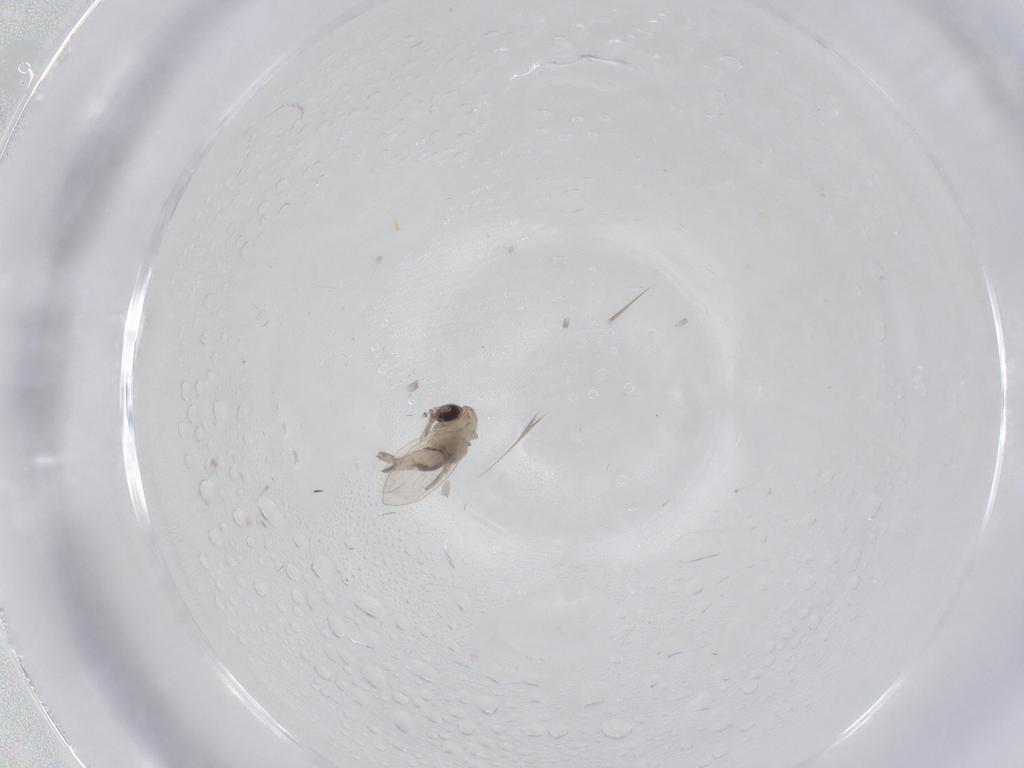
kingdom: Animalia
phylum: Arthropoda
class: Insecta
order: Diptera
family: Psychodidae
